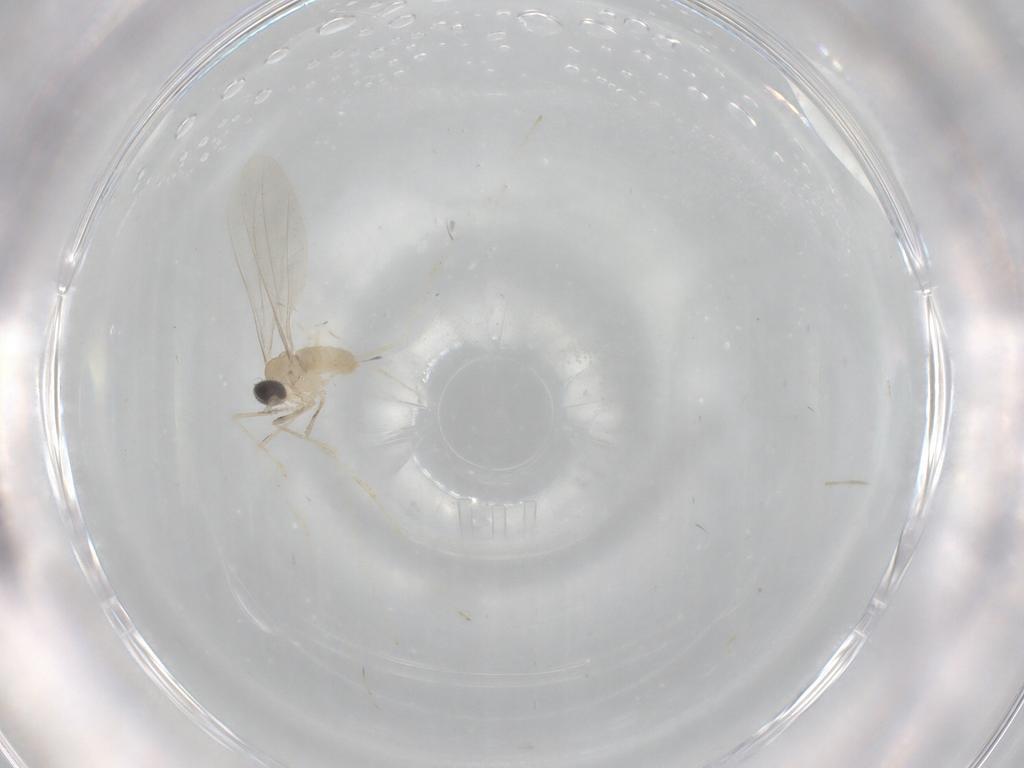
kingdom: Animalia
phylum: Arthropoda
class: Insecta
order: Diptera
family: Cecidomyiidae
